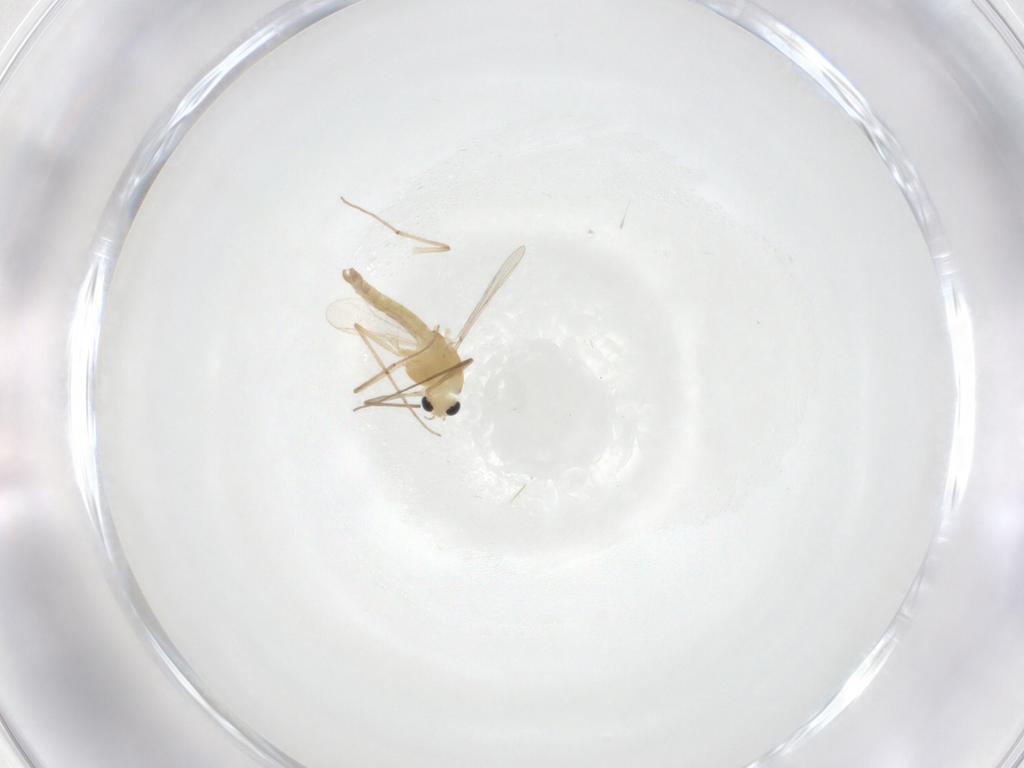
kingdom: Animalia
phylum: Arthropoda
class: Insecta
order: Diptera
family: Chironomidae
